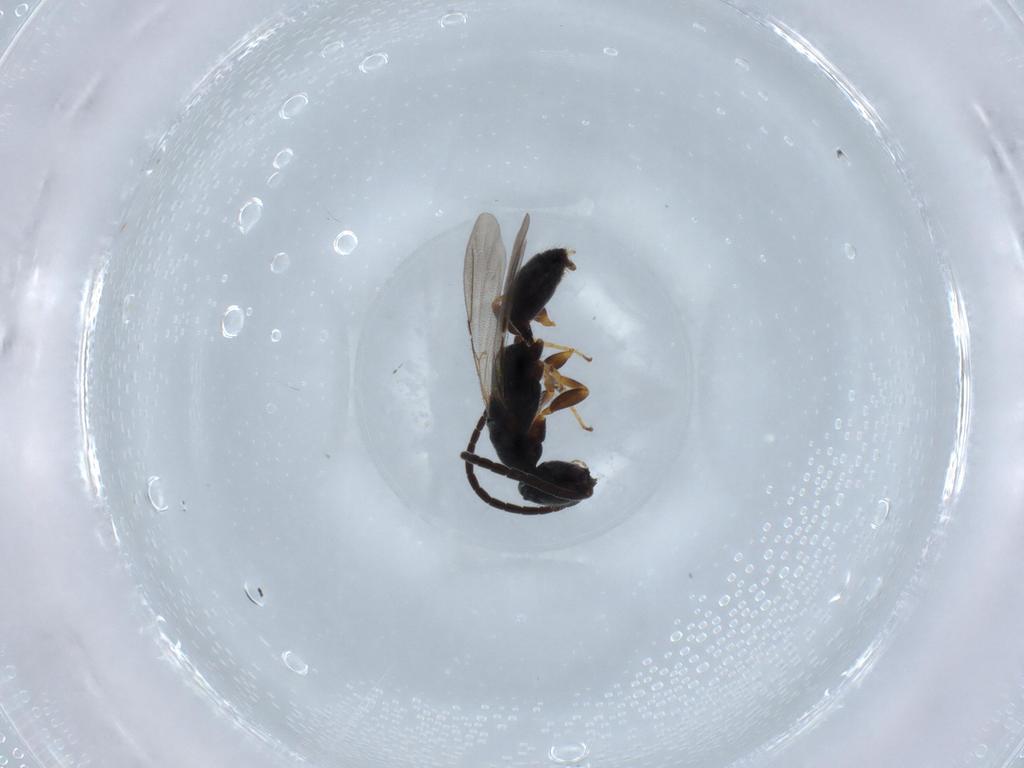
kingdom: Animalia
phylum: Arthropoda
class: Insecta
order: Hymenoptera
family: Bethylidae
